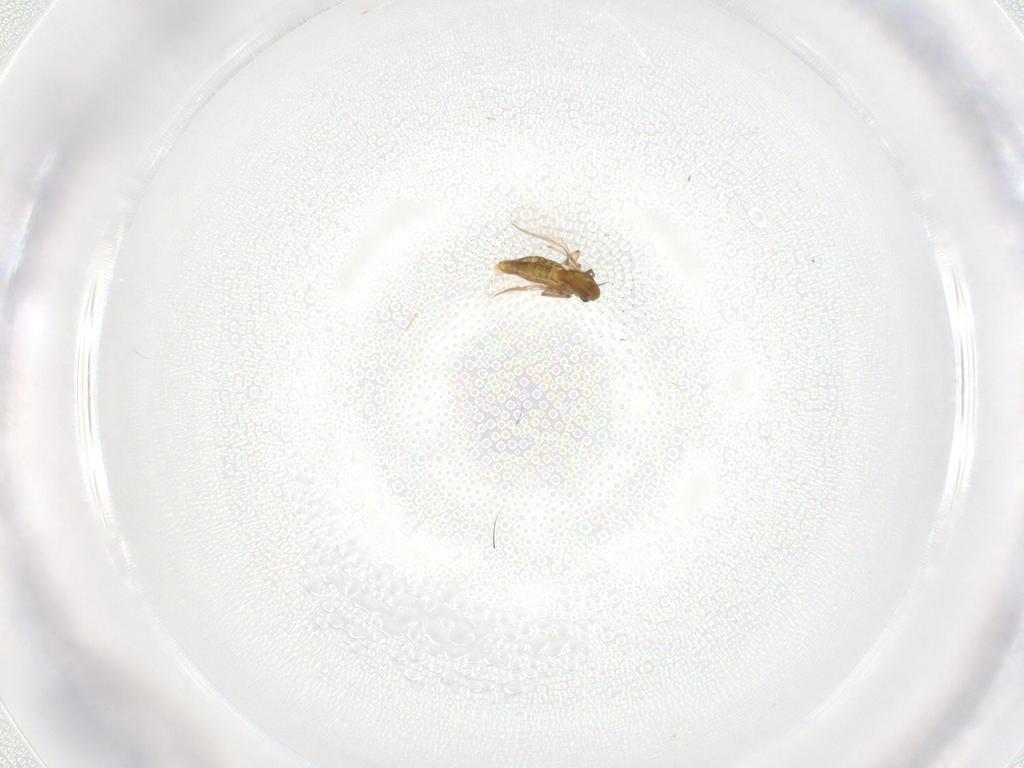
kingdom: Animalia
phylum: Arthropoda
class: Insecta
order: Diptera
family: Chironomidae
